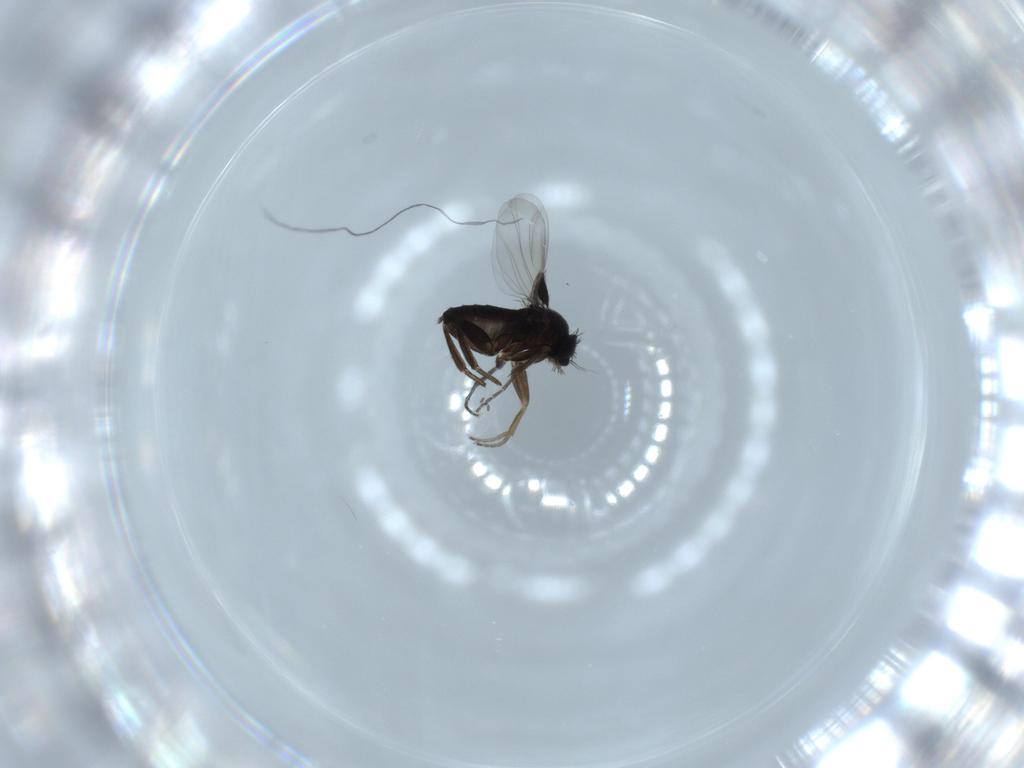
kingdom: Animalia
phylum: Arthropoda
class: Insecta
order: Diptera
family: Phoridae
